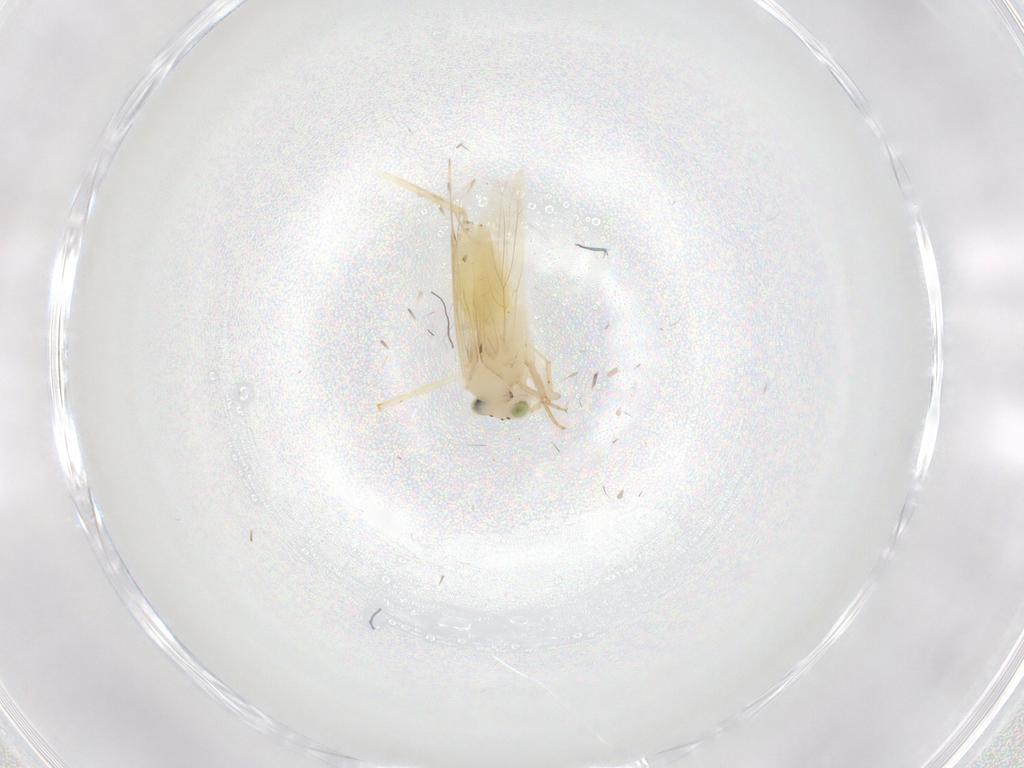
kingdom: Animalia
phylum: Arthropoda
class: Insecta
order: Psocodea
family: Lepidopsocidae
